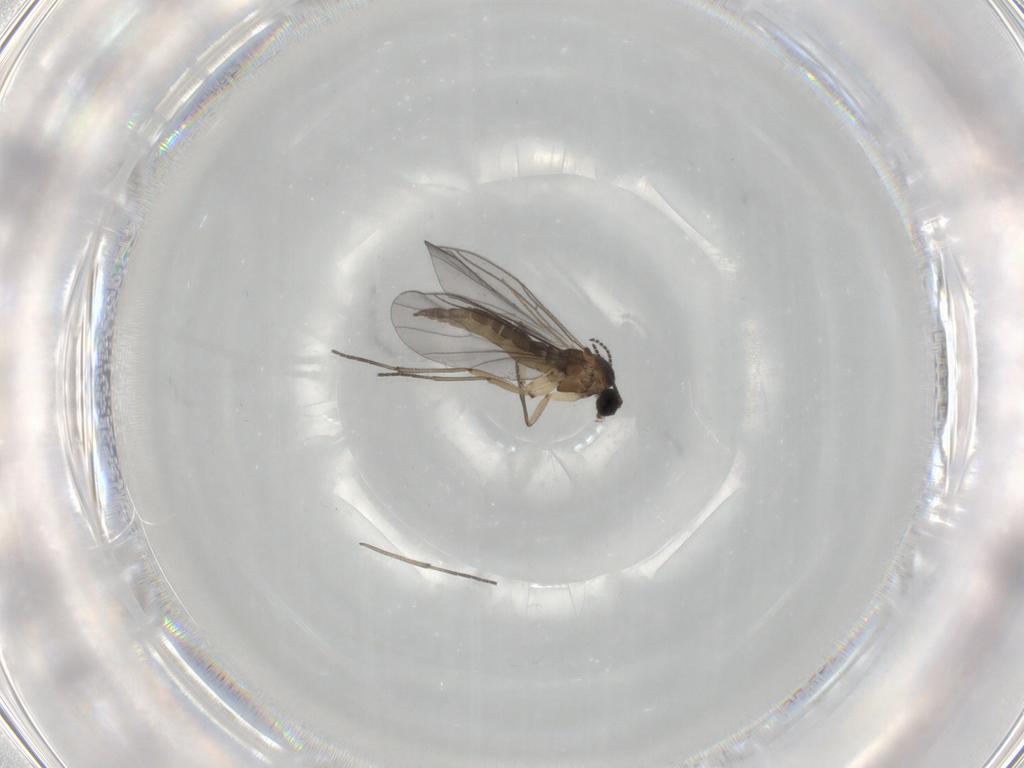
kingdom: Animalia
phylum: Arthropoda
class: Insecta
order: Diptera
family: Sciaridae
